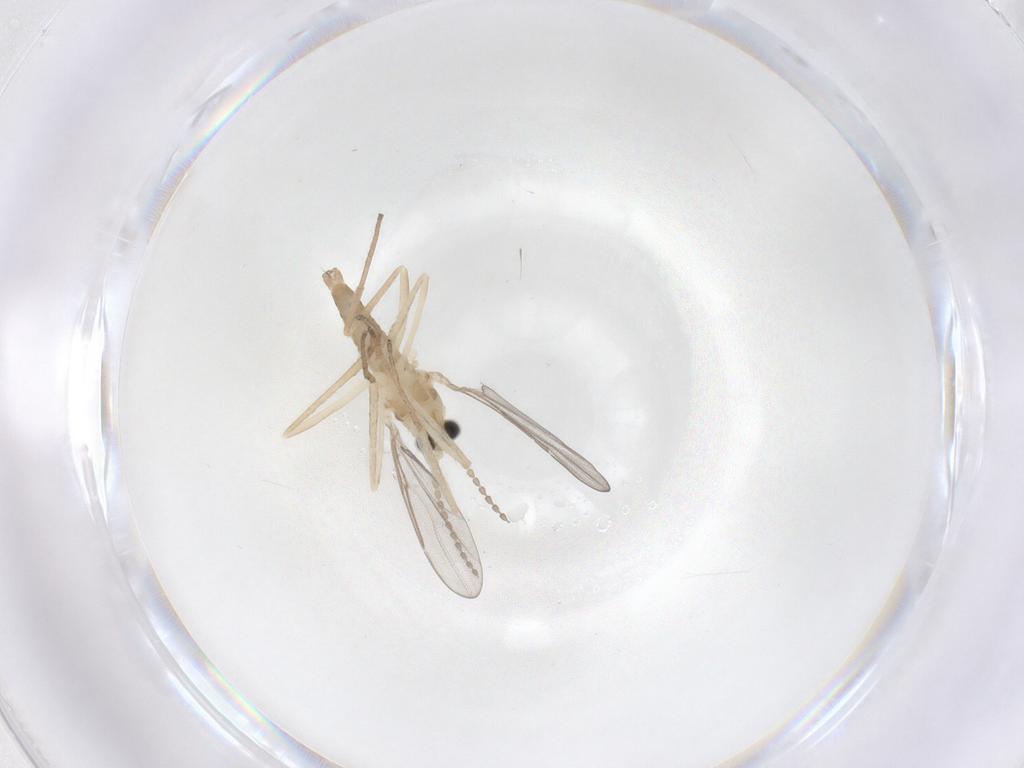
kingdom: Animalia
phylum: Arthropoda
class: Insecta
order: Diptera
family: Cecidomyiidae
